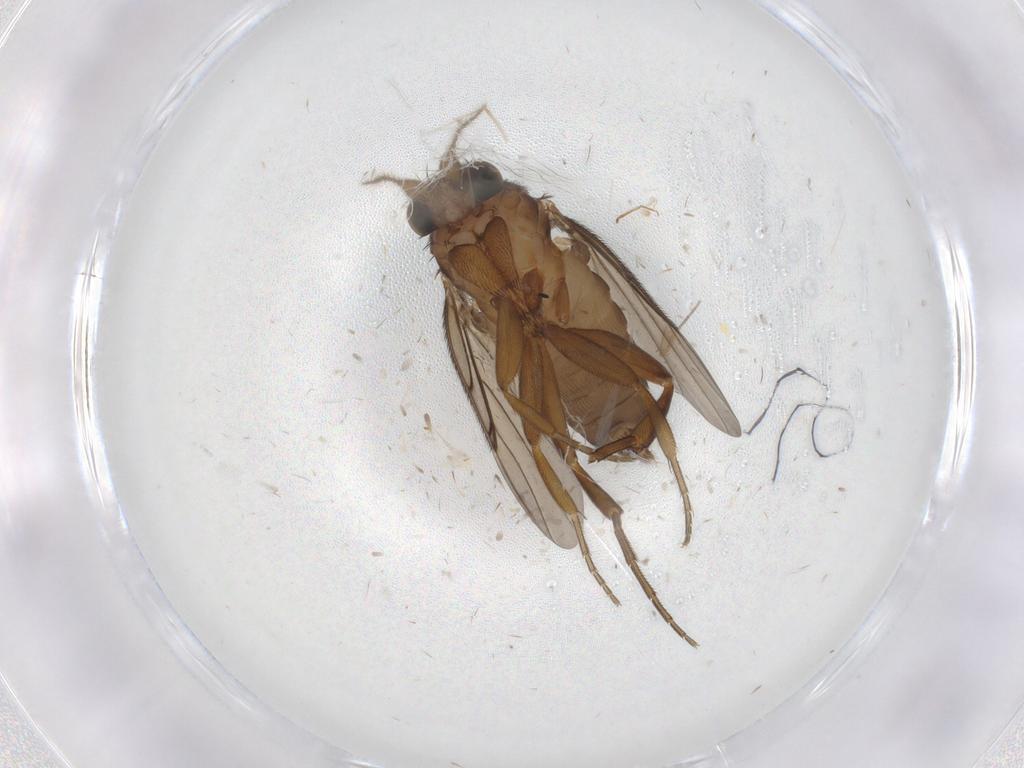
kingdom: Animalia
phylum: Arthropoda
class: Insecta
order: Diptera
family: Phoridae
